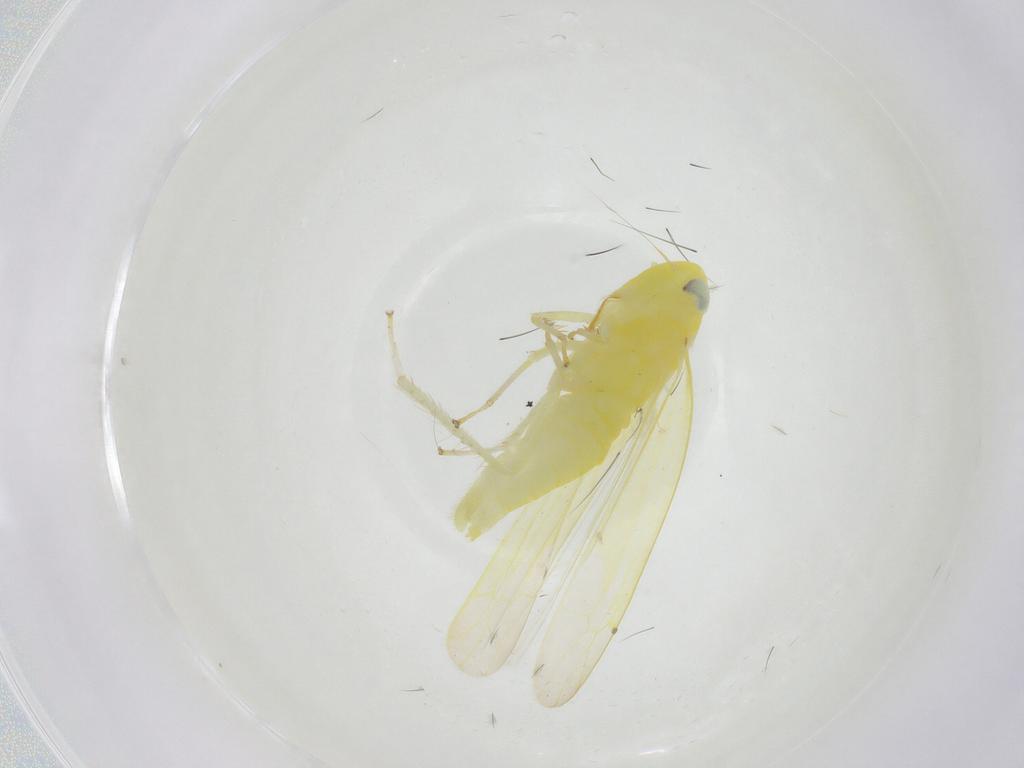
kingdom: Animalia
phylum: Arthropoda
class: Insecta
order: Hemiptera
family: Cicadellidae
